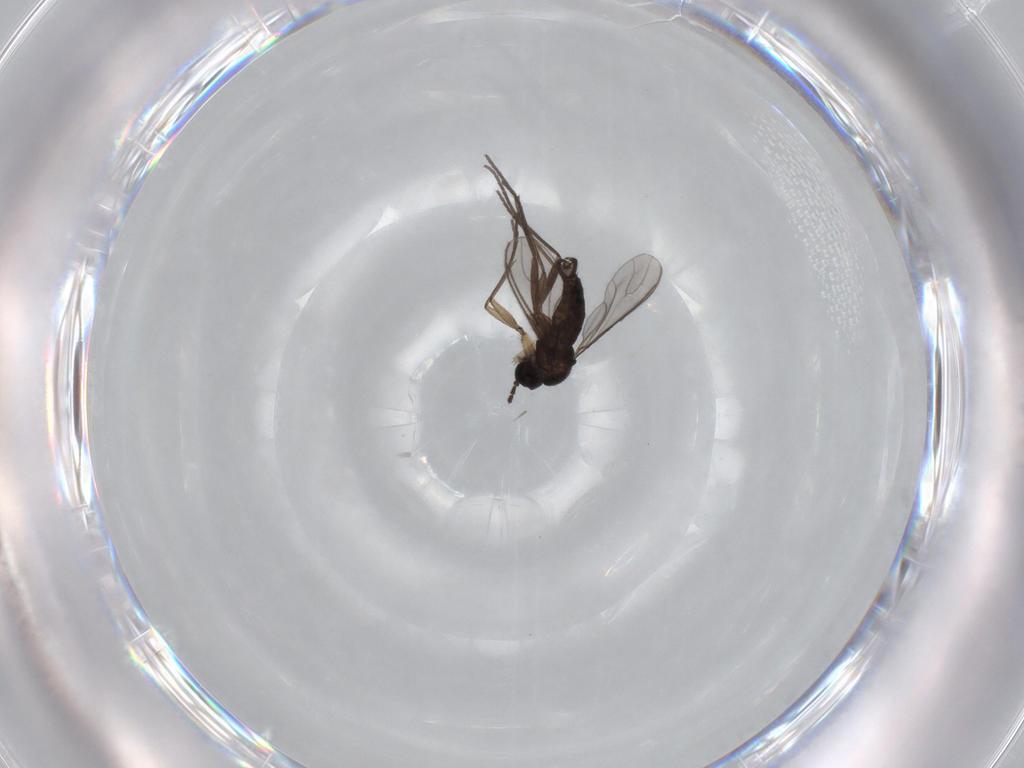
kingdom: Animalia
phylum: Arthropoda
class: Insecta
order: Diptera
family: Sciaridae
